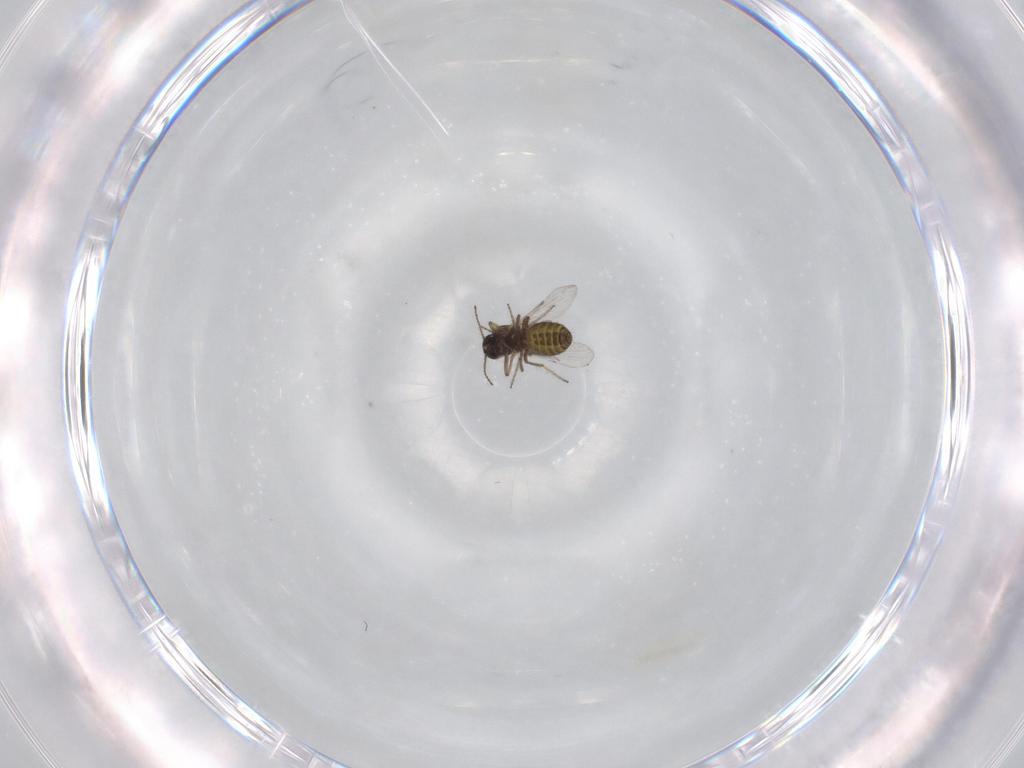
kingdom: Animalia
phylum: Arthropoda
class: Insecta
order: Diptera
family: Ceratopogonidae
